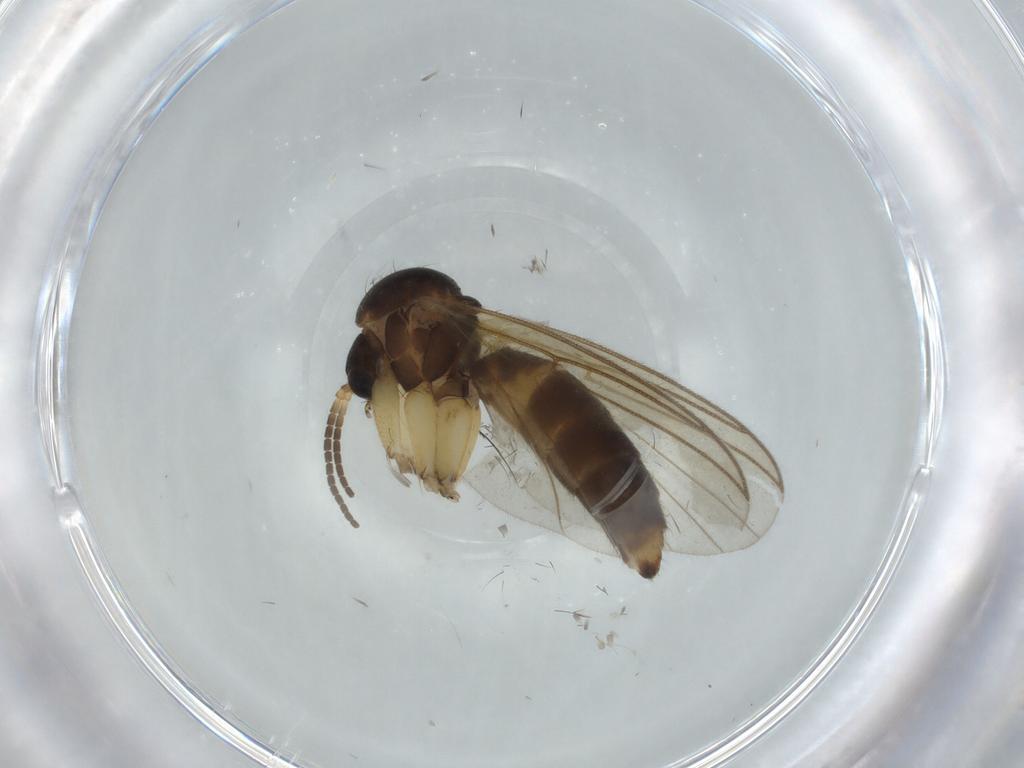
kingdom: Animalia
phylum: Arthropoda
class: Insecta
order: Diptera
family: Culicidae
